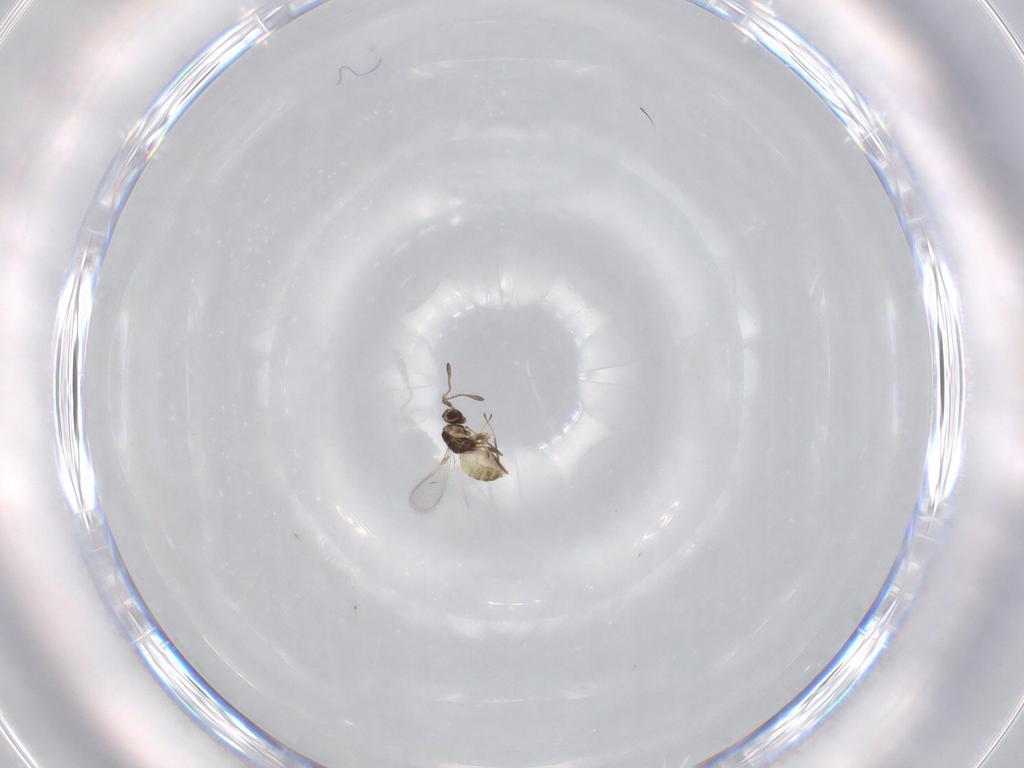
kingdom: Animalia
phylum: Arthropoda
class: Insecta
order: Hymenoptera
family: Mymaridae
